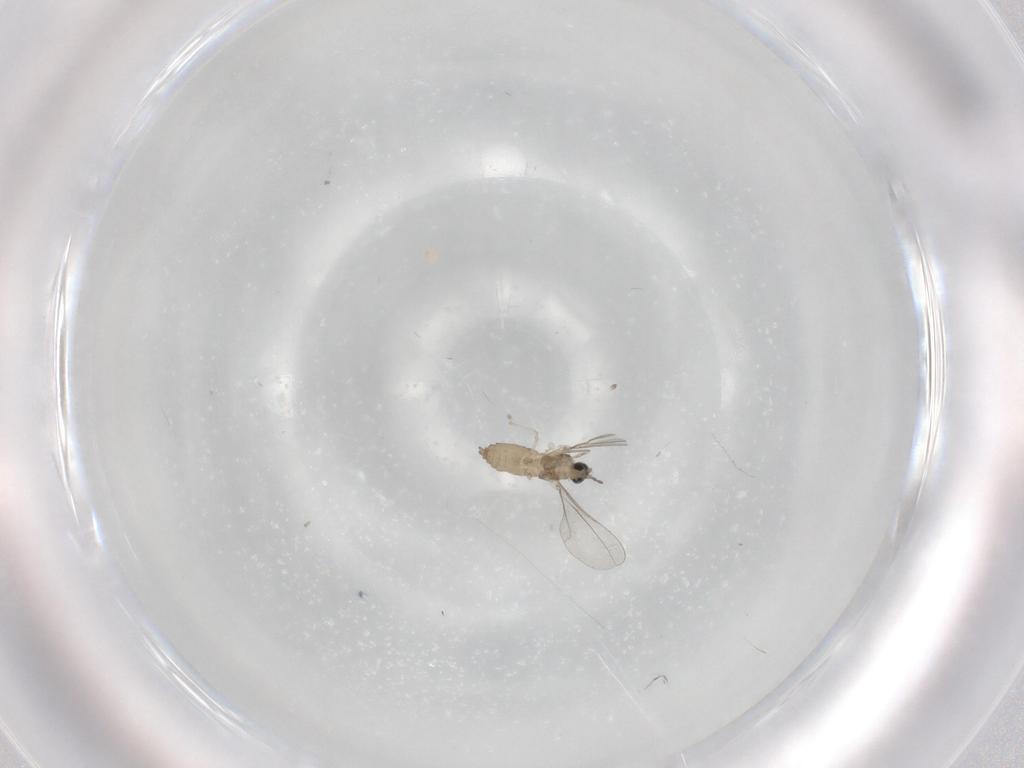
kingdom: Animalia
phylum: Arthropoda
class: Insecta
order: Diptera
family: Cecidomyiidae
